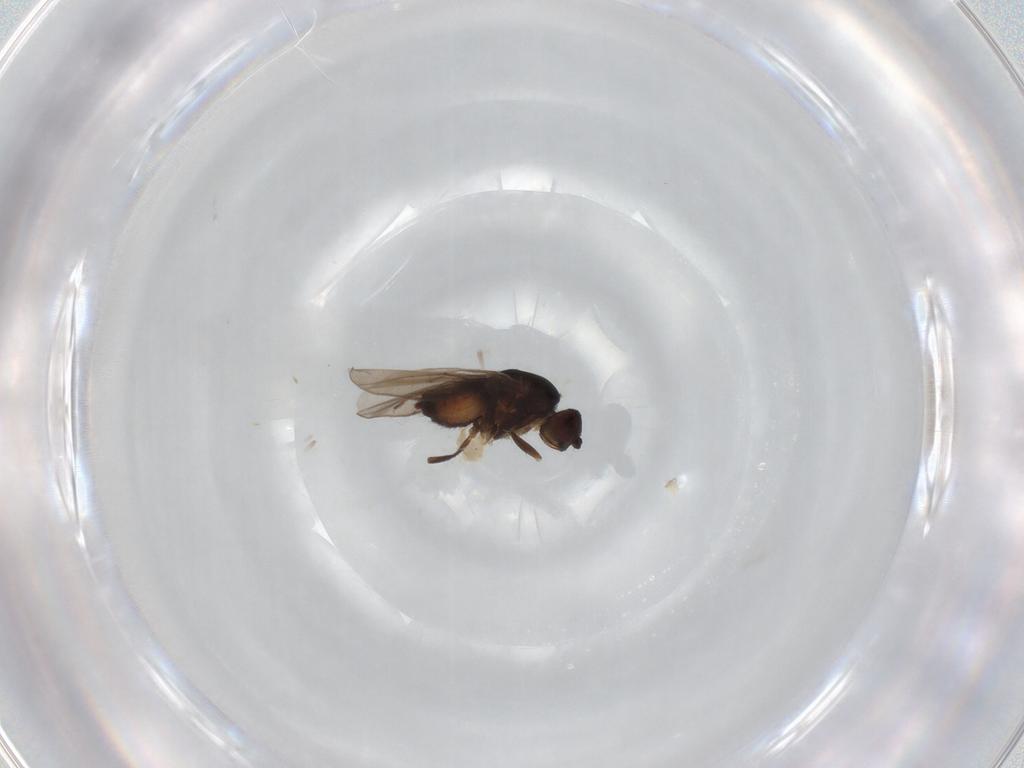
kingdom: Animalia
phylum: Arthropoda
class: Insecta
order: Diptera
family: Sphaeroceridae
